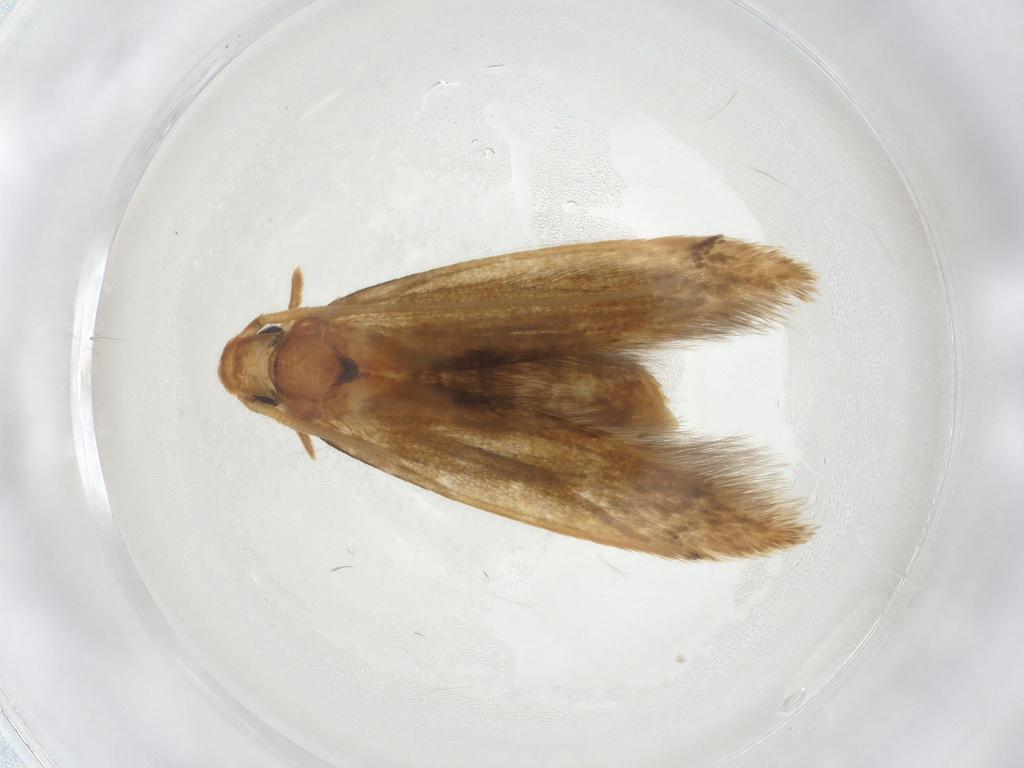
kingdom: Animalia
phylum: Arthropoda
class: Insecta
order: Lepidoptera
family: Tineidae
